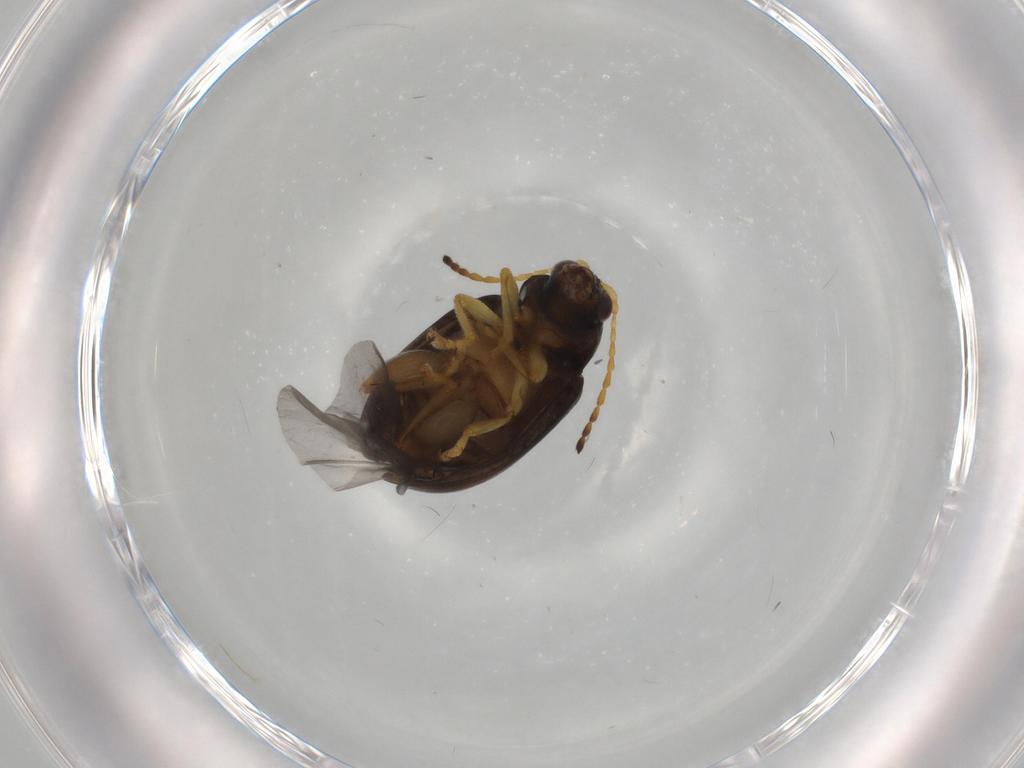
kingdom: Animalia
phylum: Arthropoda
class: Insecta
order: Coleoptera
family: Chrysomelidae
